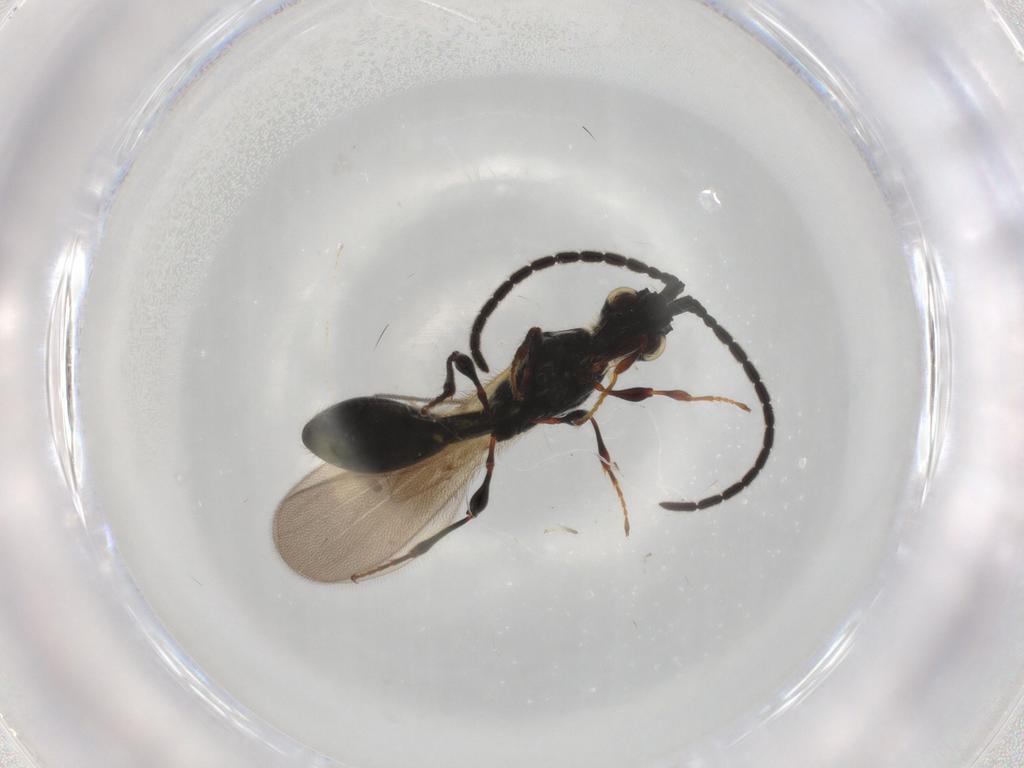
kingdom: Animalia
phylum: Arthropoda
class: Insecta
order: Hymenoptera
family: Diapriidae
